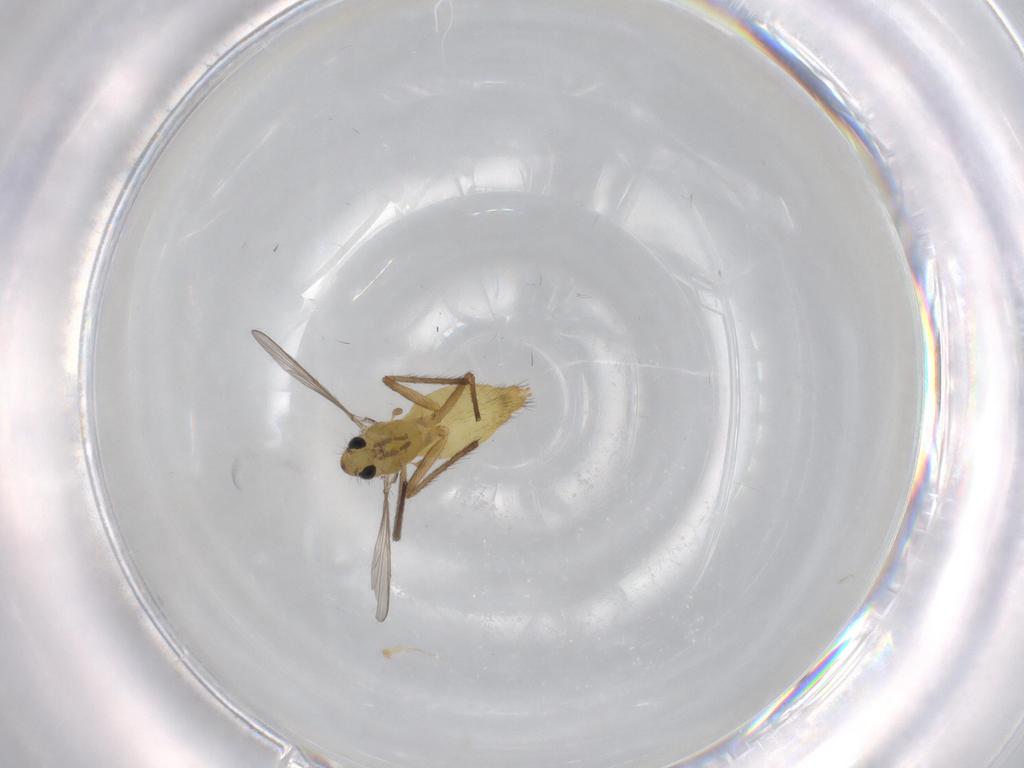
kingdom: Animalia
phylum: Arthropoda
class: Insecta
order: Diptera
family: Chironomidae
